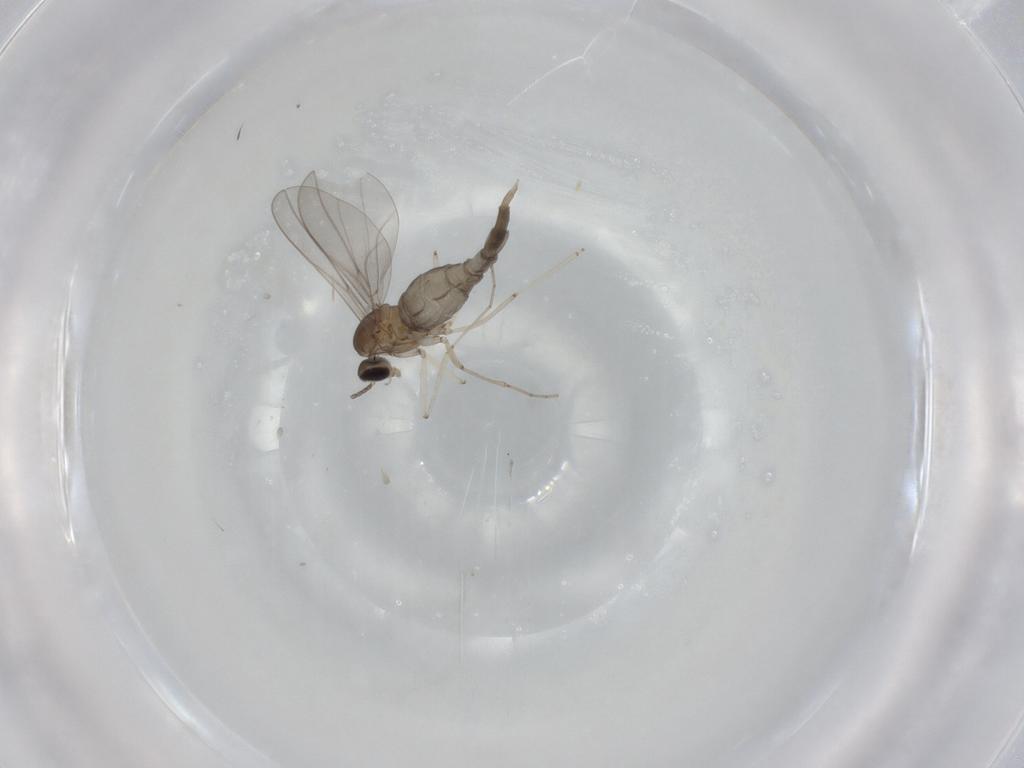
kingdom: Animalia
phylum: Arthropoda
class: Insecta
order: Diptera
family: Cecidomyiidae
